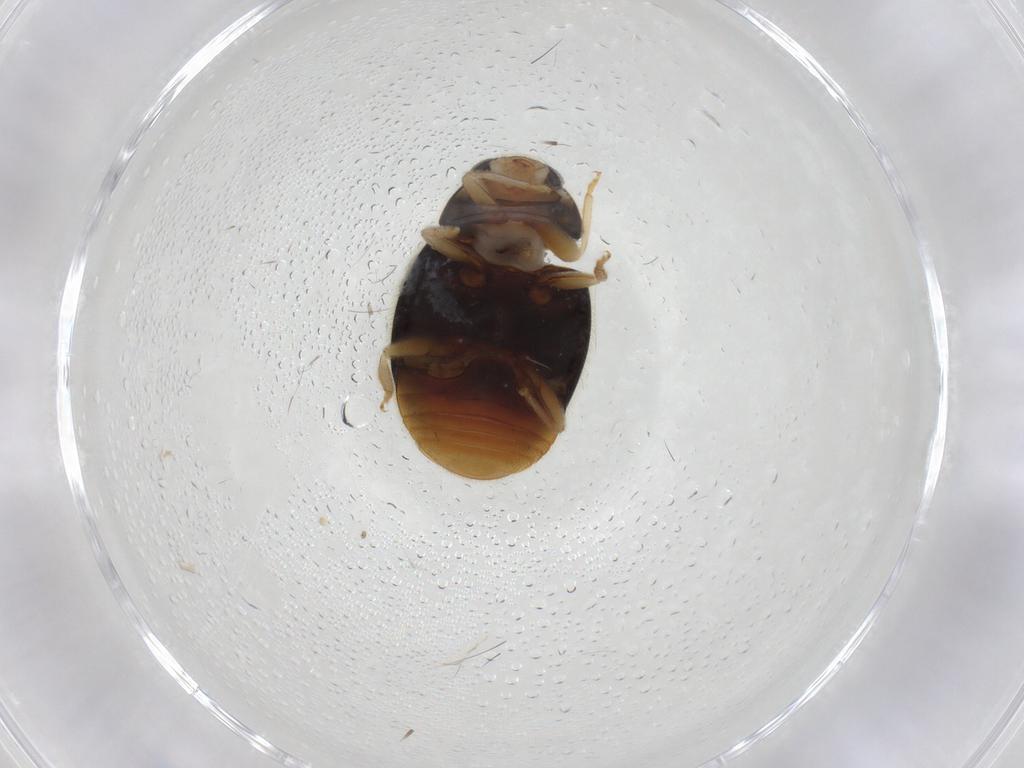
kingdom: Animalia
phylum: Arthropoda
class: Insecta
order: Coleoptera
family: Coccinellidae
